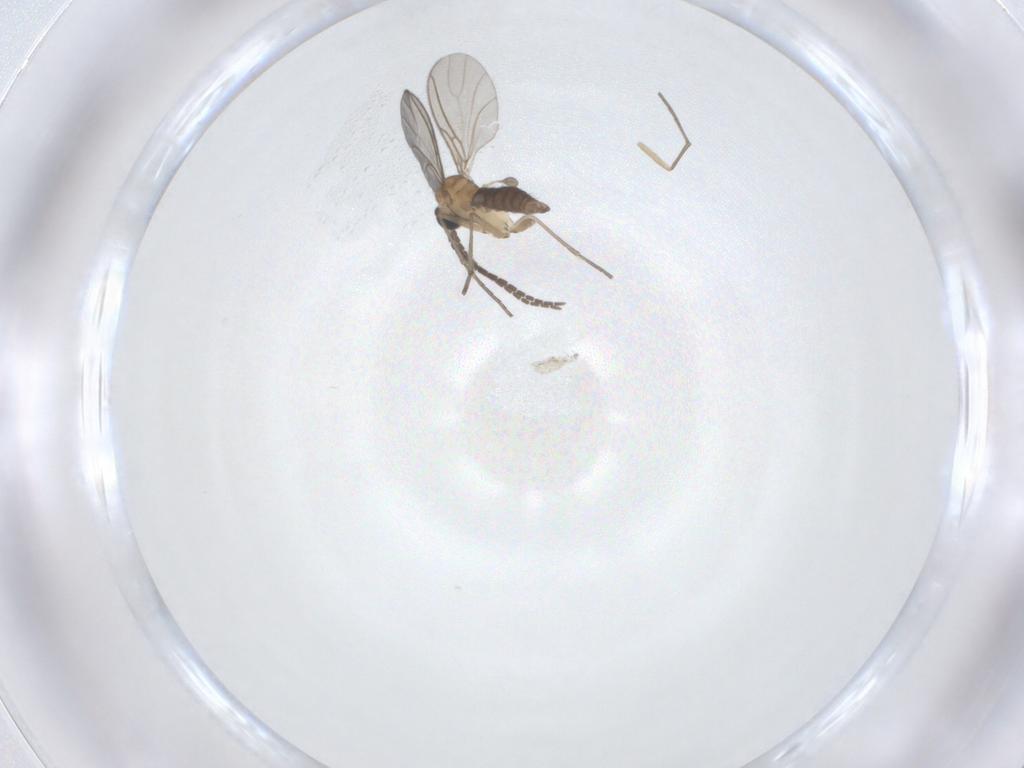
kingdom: Animalia
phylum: Arthropoda
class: Insecta
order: Diptera
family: Sciaridae
